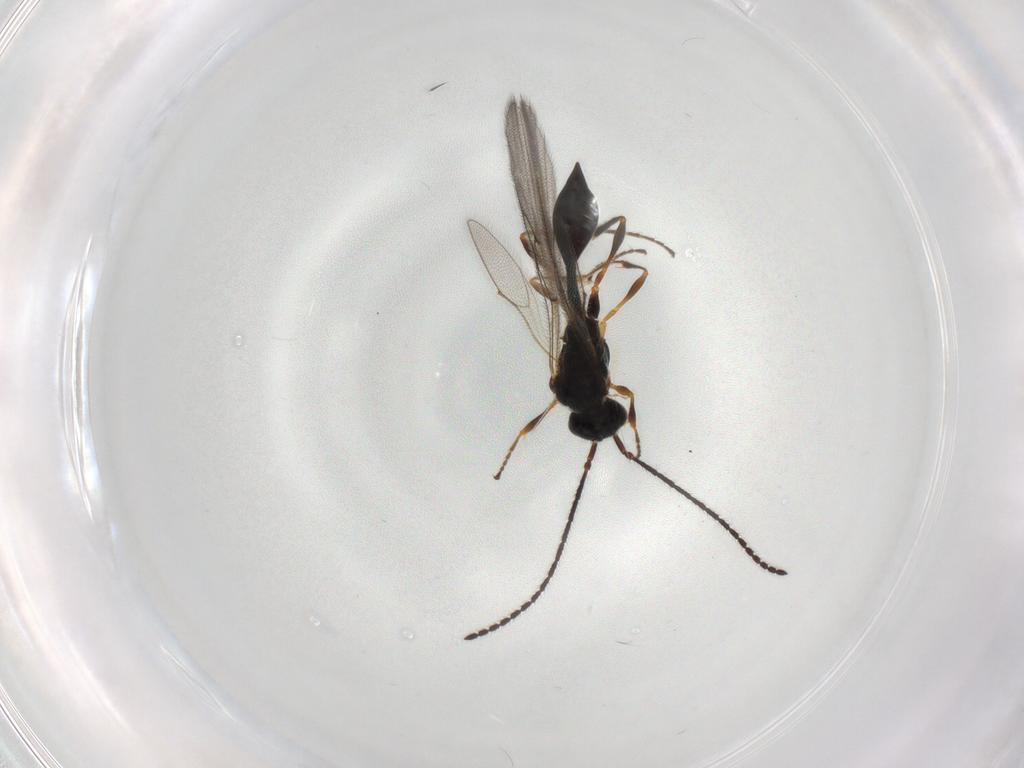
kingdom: Animalia
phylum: Arthropoda
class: Insecta
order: Hymenoptera
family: Diapriidae
